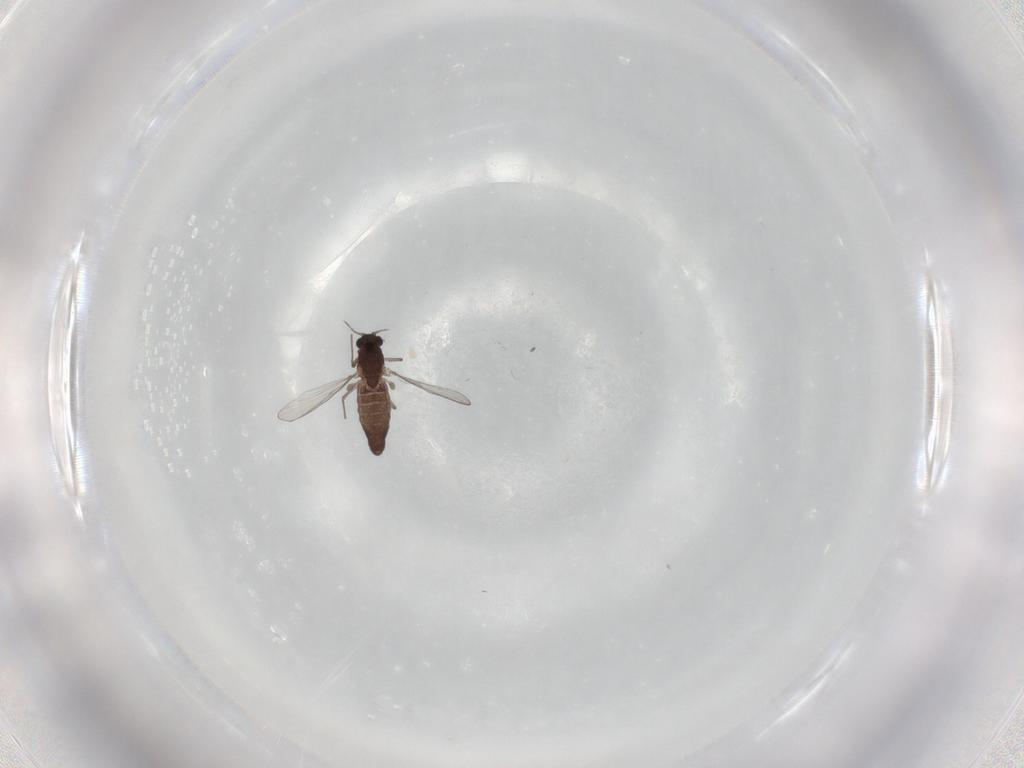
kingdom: Animalia
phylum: Arthropoda
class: Insecta
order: Diptera
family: Chironomidae
